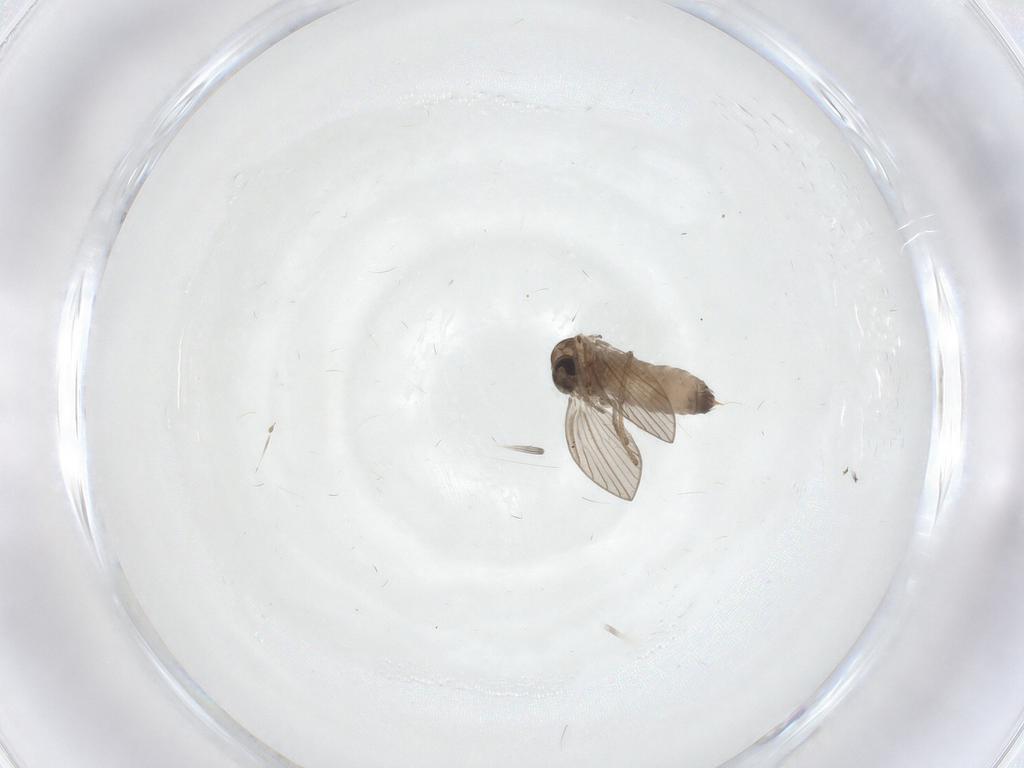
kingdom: Animalia
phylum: Arthropoda
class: Insecta
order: Diptera
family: Psychodidae
